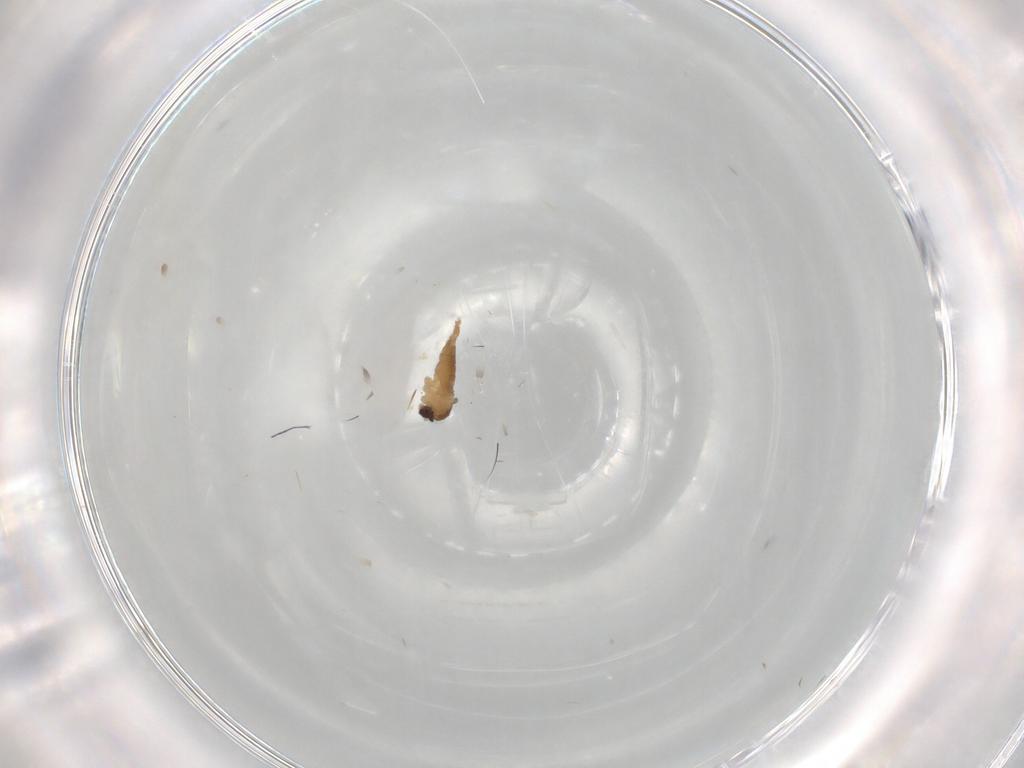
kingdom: Animalia
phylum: Arthropoda
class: Insecta
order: Diptera
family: Cecidomyiidae
